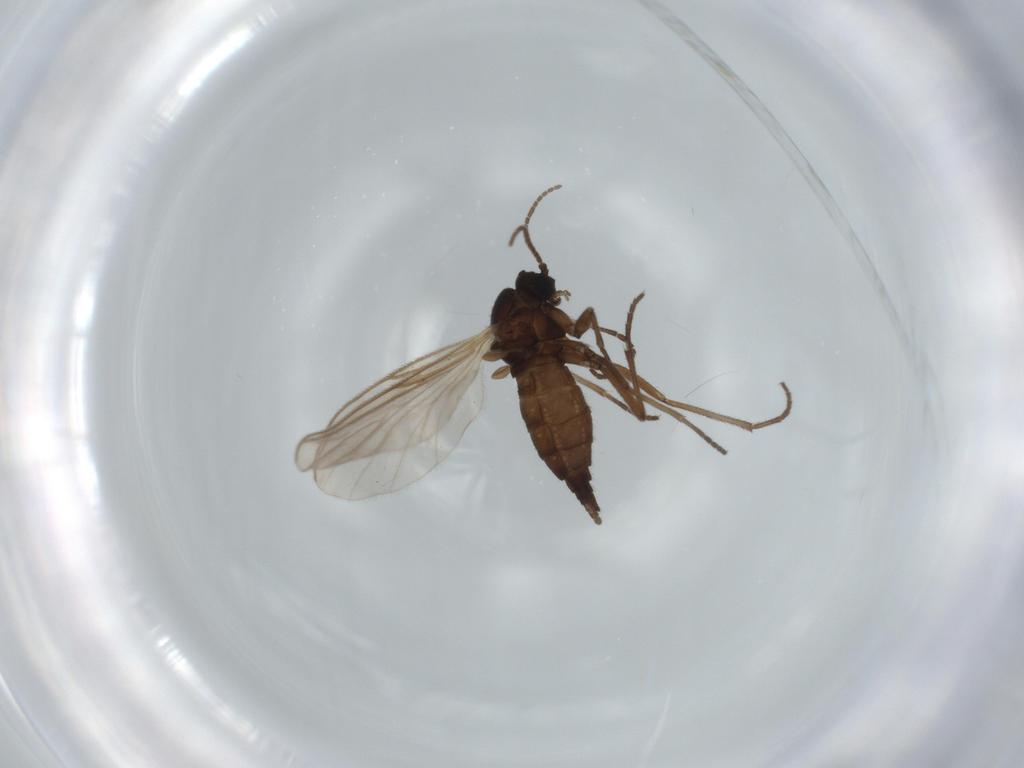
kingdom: Animalia
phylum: Arthropoda
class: Insecta
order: Diptera
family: Sciaridae
